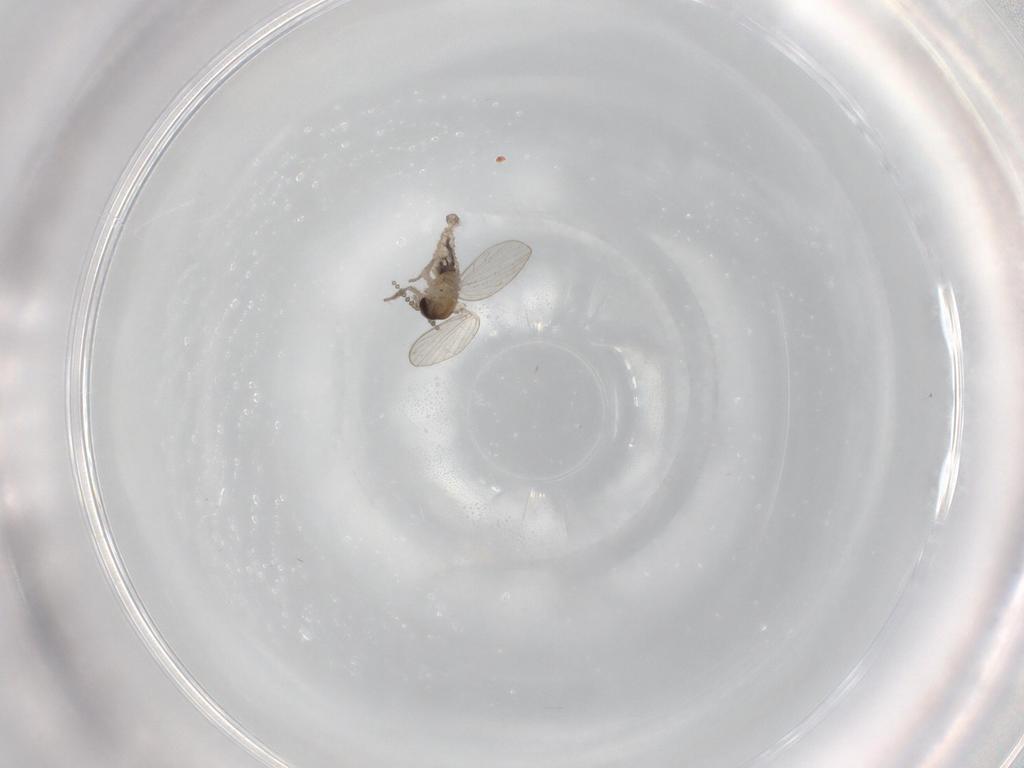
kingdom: Animalia
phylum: Arthropoda
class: Insecta
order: Diptera
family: Psychodidae
